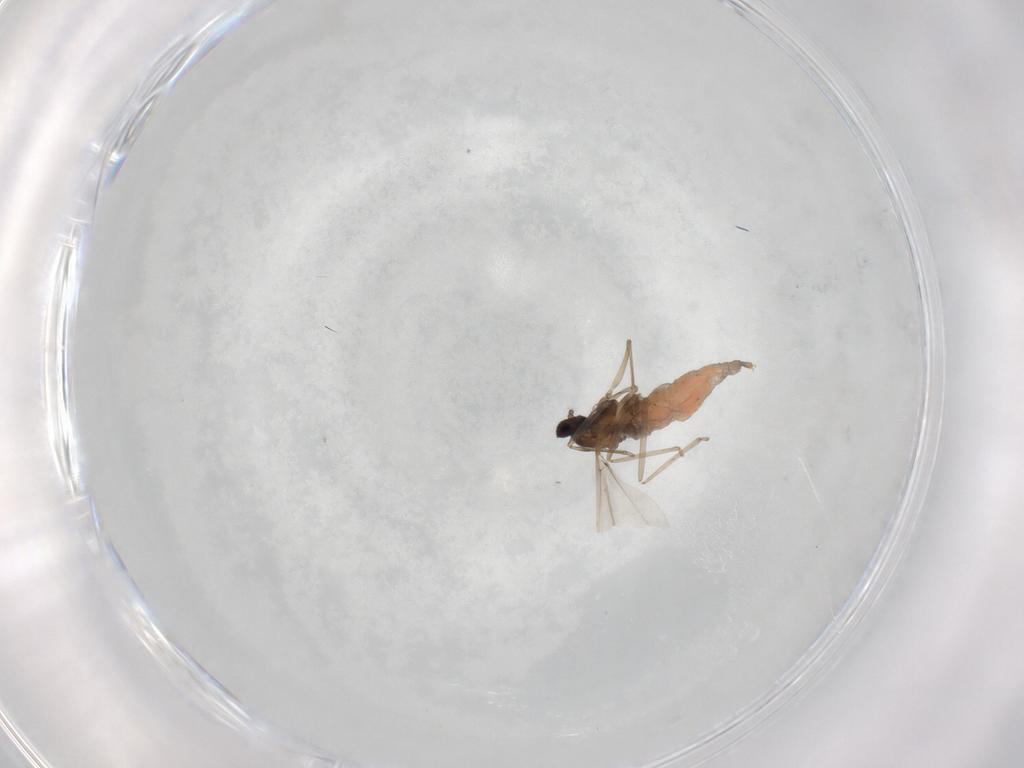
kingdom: Animalia
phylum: Arthropoda
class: Insecta
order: Diptera
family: Cecidomyiidae
